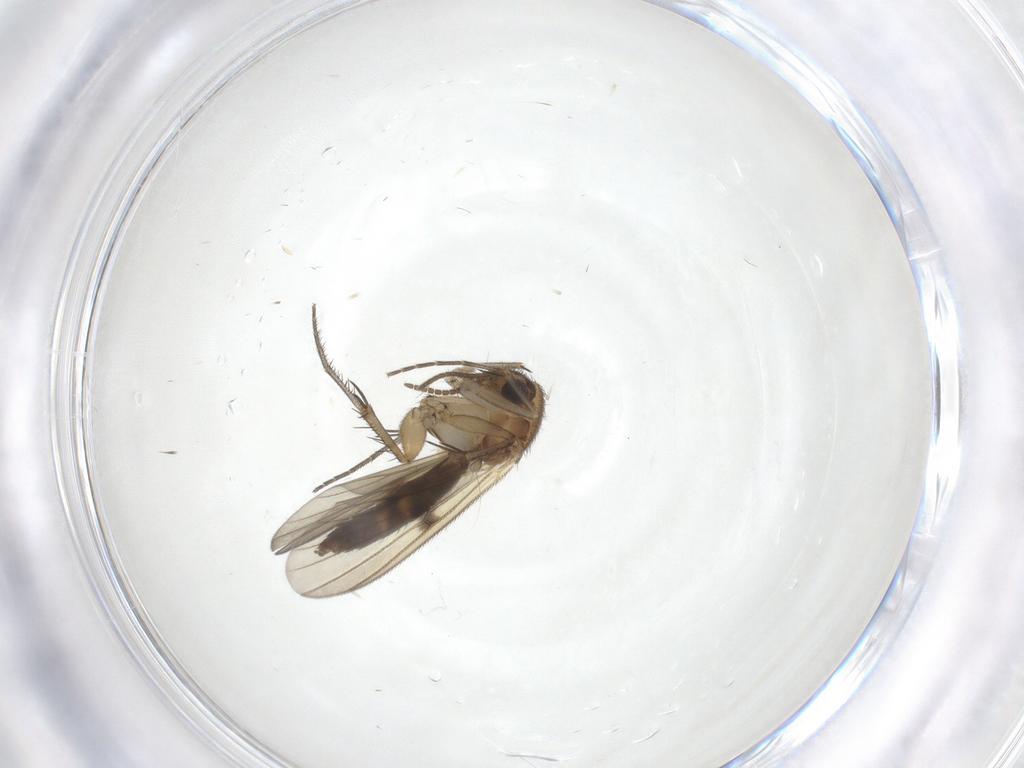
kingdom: Animalia
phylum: Arthropoda
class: Insecta
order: Diptera
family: Mycetophilidae
